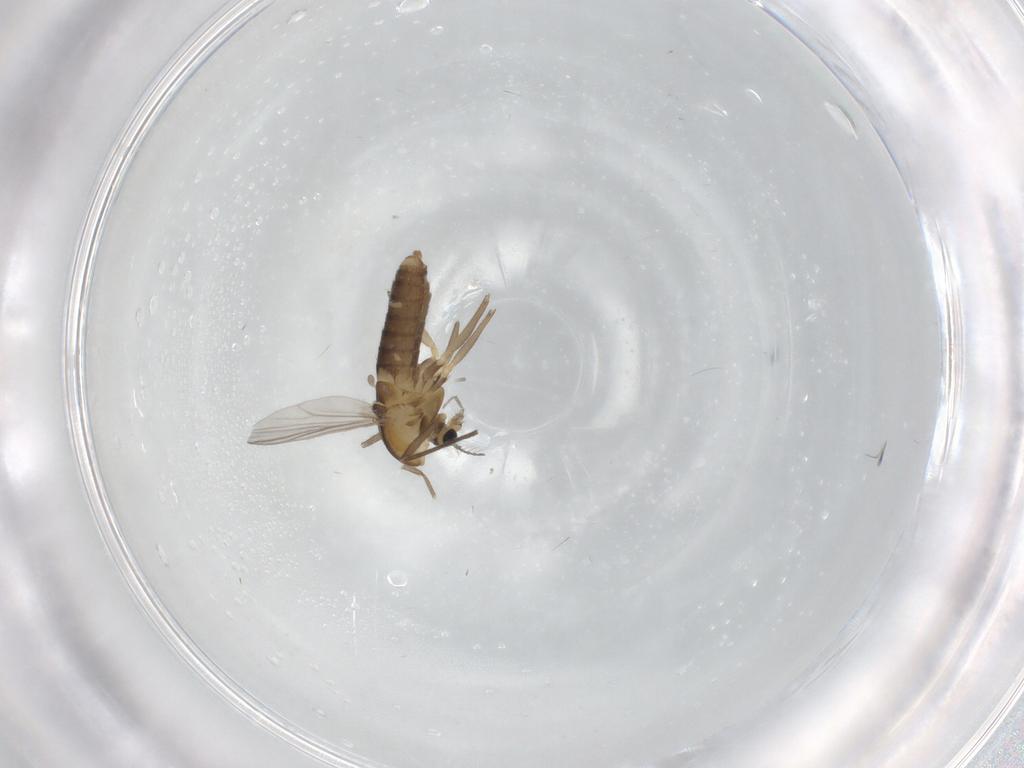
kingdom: Animalia
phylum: Arthropoda
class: Insecta
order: Diptera
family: Chironomidae
